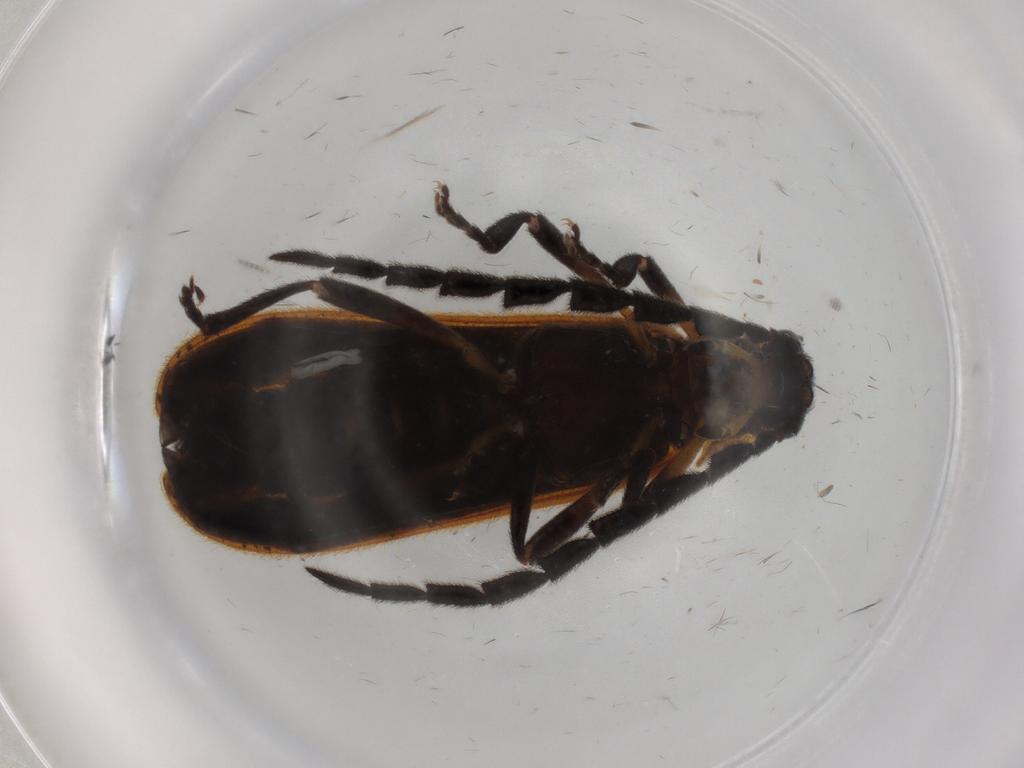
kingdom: Animalia
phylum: Arthropoda
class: Insecta
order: Coleoptera
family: Lycidae
